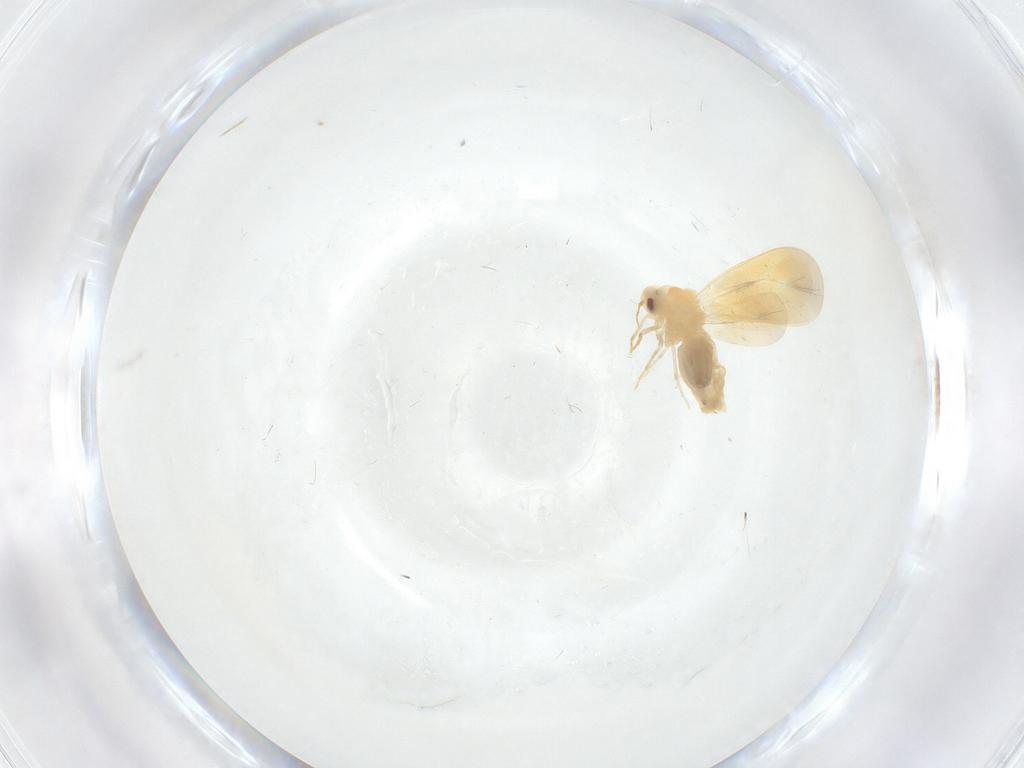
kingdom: Animalia
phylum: Arthropoda
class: Insecta
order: Hemiptera
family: Aleyrodidae
